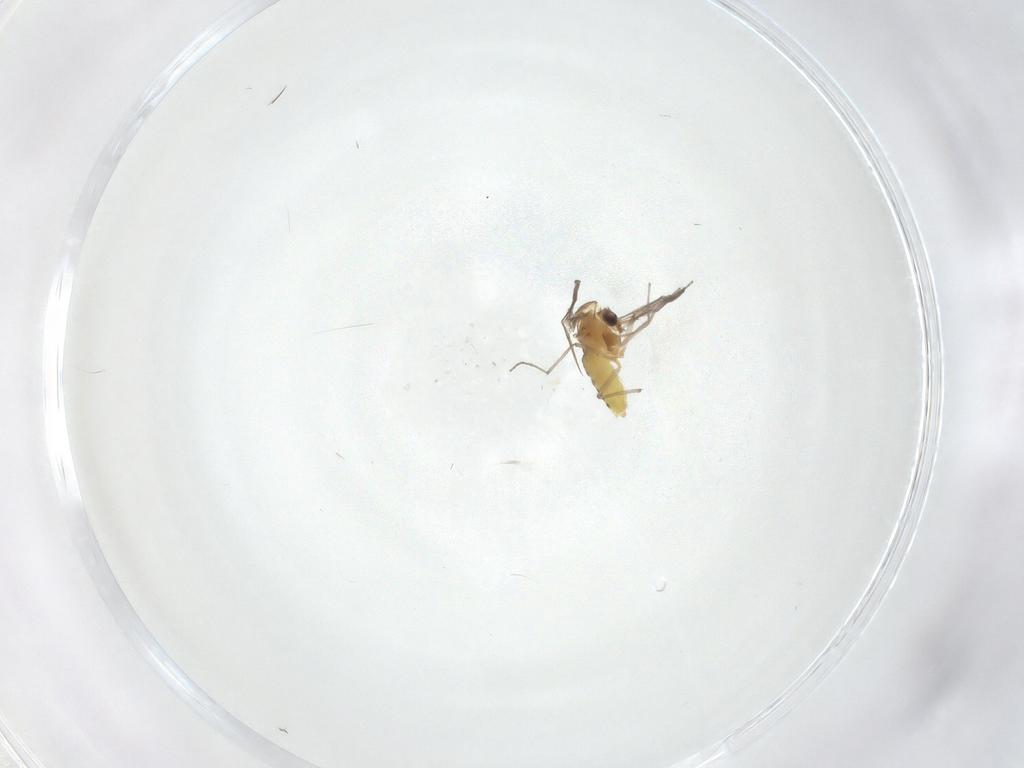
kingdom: Animalia
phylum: Arthropoda
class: Insecta
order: Diptera
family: Chironomidae
